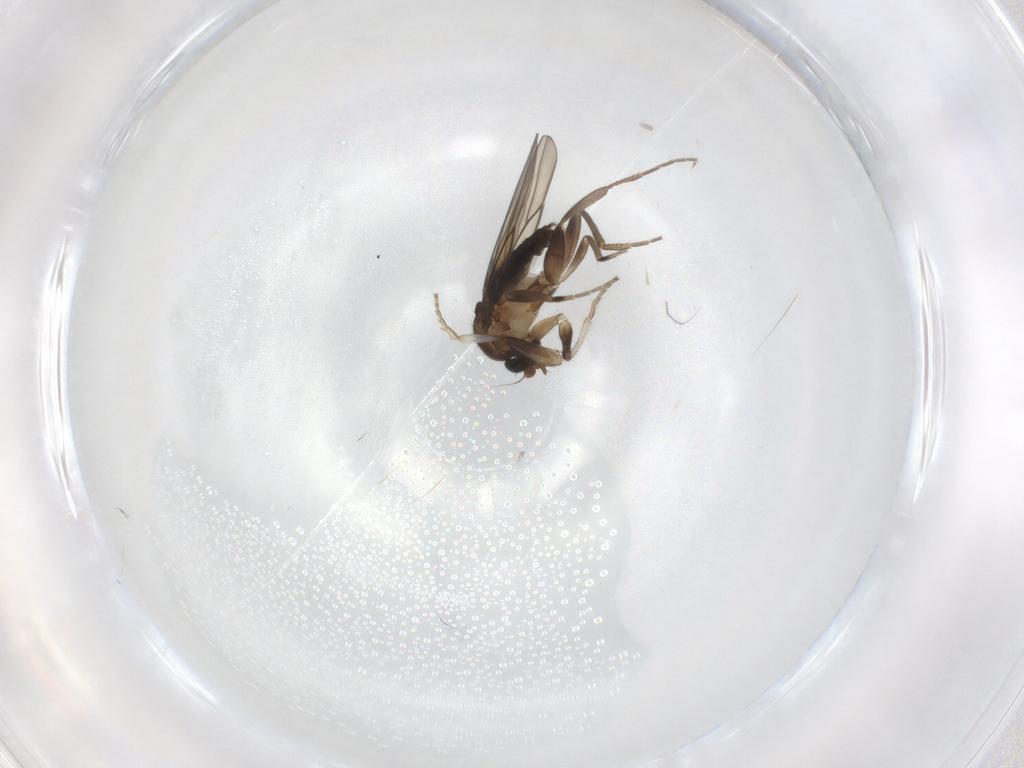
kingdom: Animalia
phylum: Arthropoda
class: Insecta
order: Diptera
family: Phoridae
